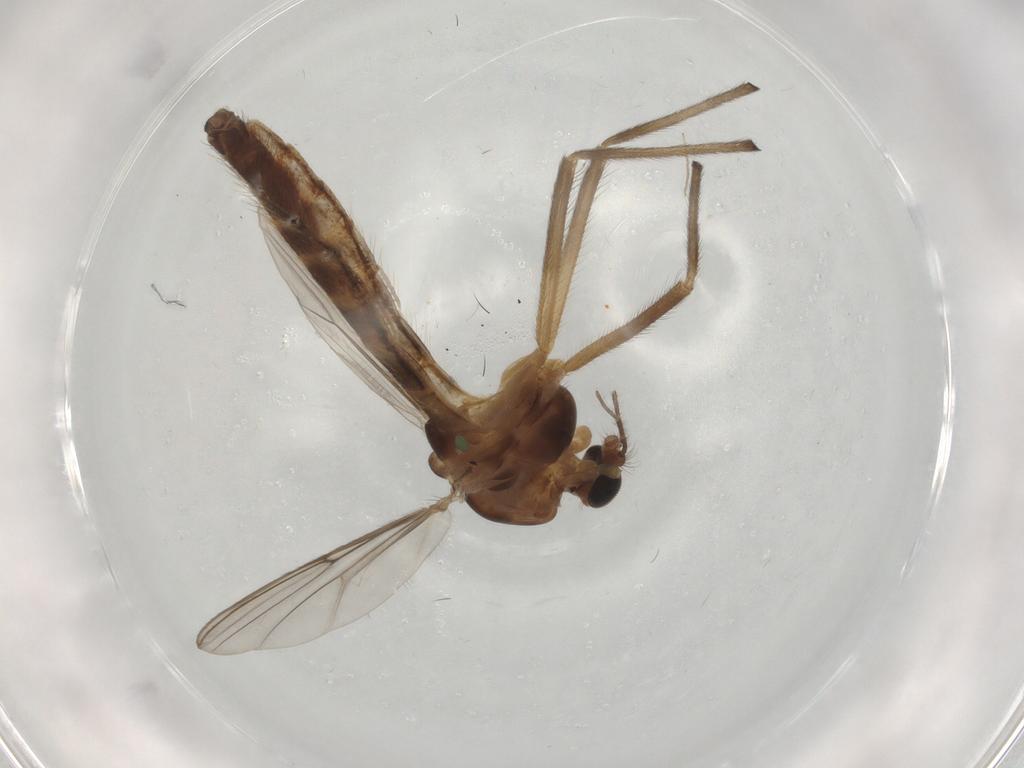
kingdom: Animalia
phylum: Arthropoda
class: Insecta
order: Diptera
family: Chironomidae
